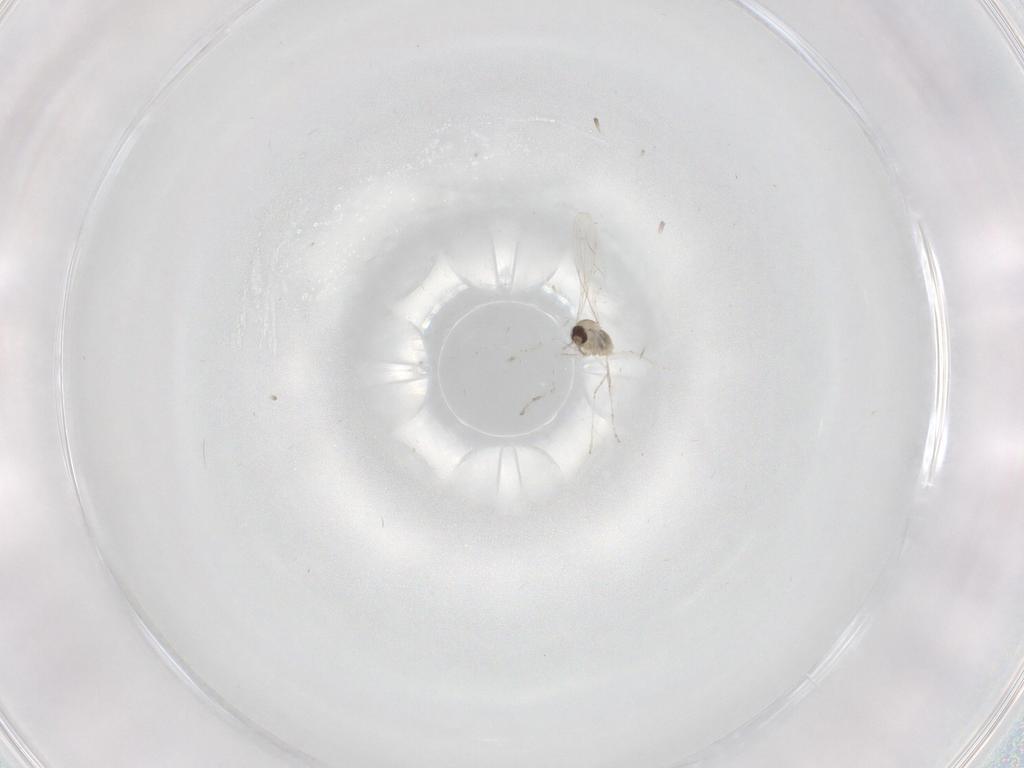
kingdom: Animalia
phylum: Arthropoda
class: Insecta
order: Diptera
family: Cecidomyiidae
